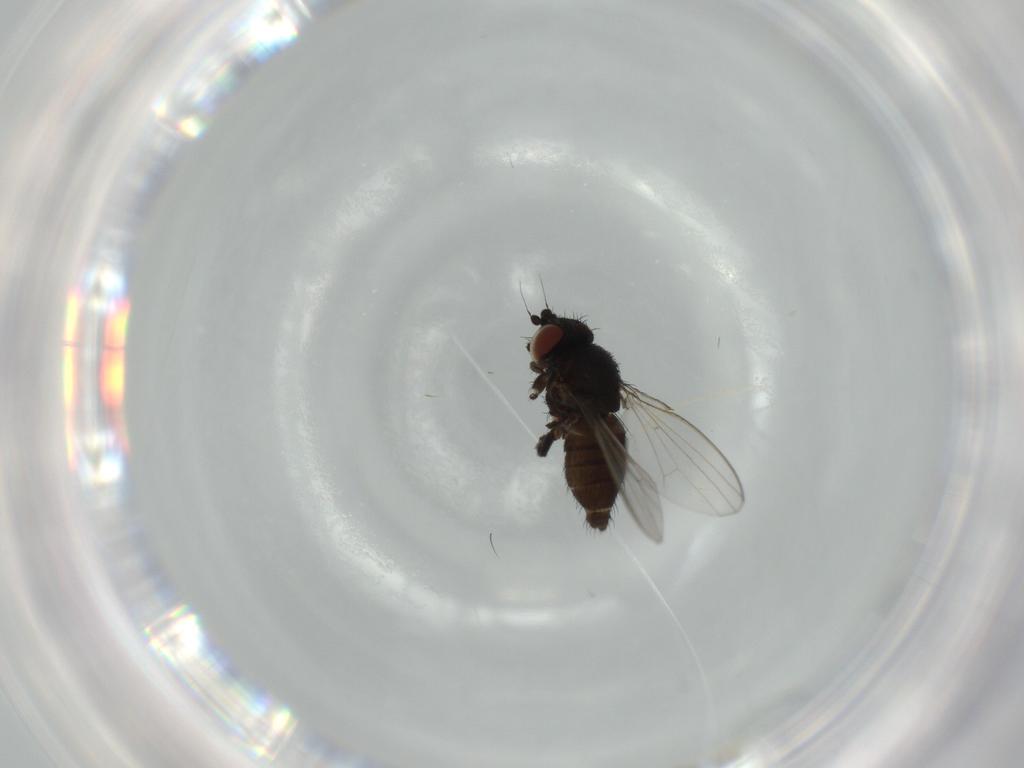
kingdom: Animalia
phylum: Arthropoda
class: Insecta
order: Diptera
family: Milichiidae
